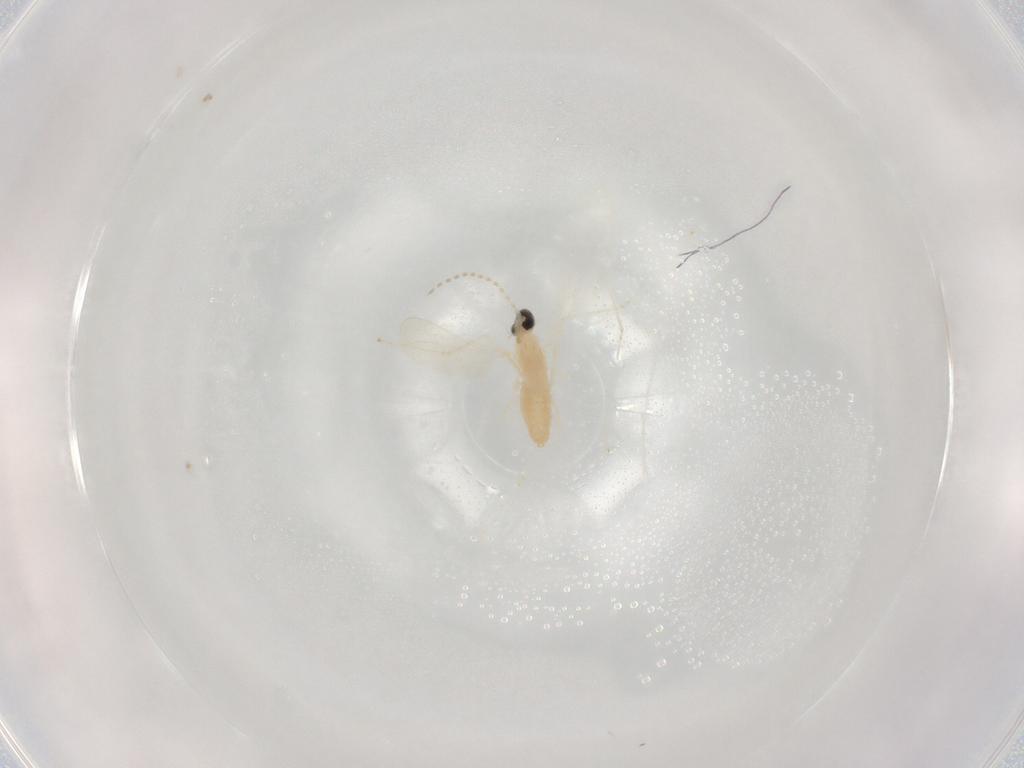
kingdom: Animalia
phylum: Arthropoda
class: Insecta
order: Diptera
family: Cecidomyiidae
